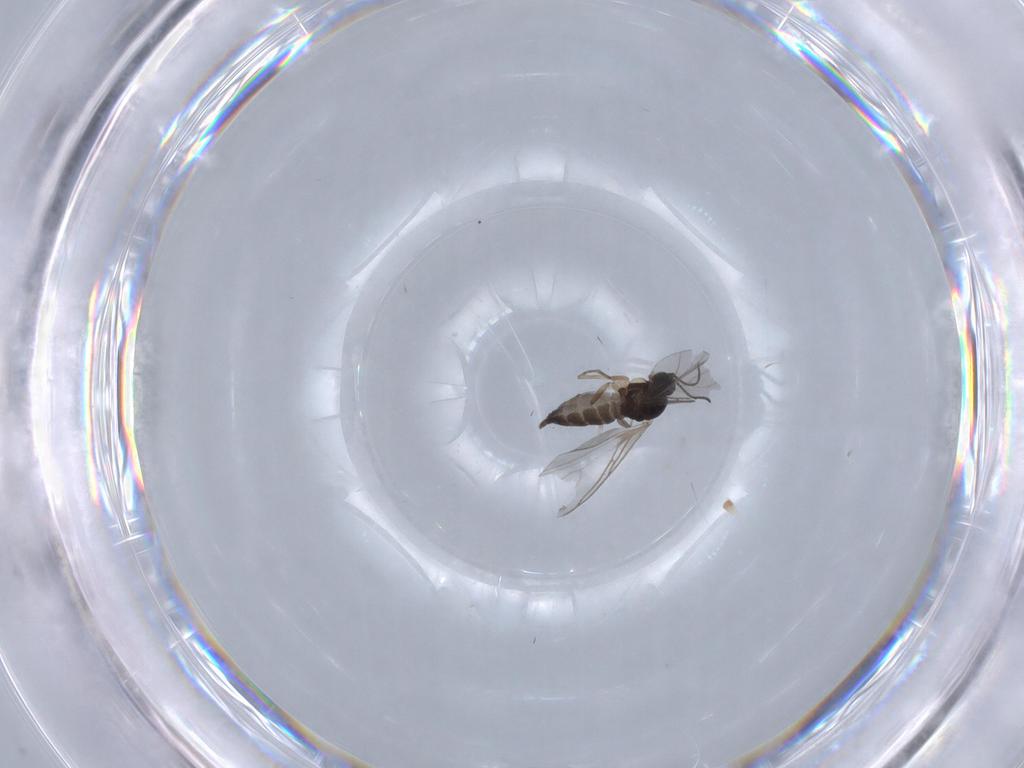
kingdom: Animalia
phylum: Arthropoda
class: Insecta
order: Diptera
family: Sciaridae
